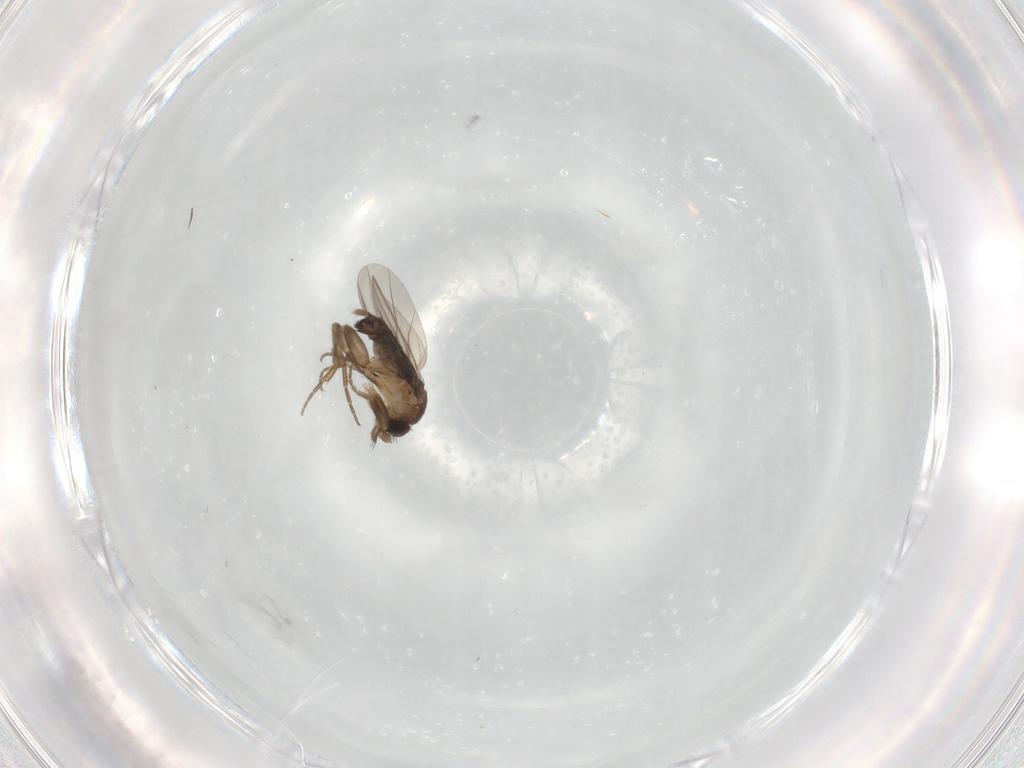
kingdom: Animalia
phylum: Arthropoda
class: Insecta
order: Diptera
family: Phoridae
